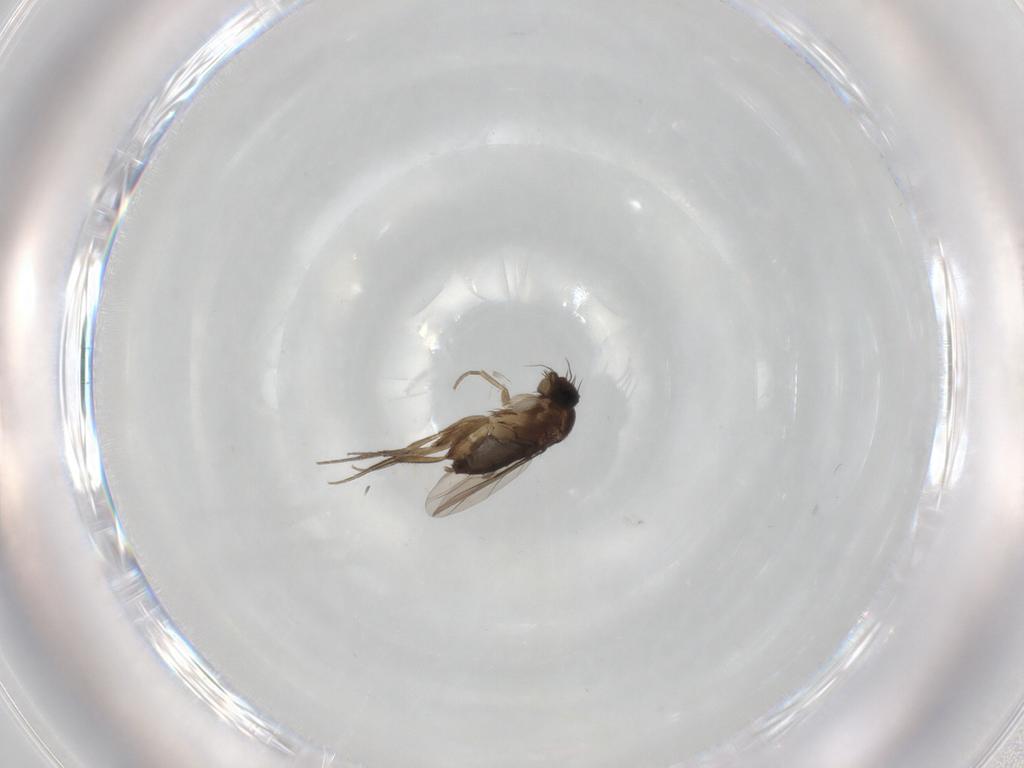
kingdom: Animalia
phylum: Arthropoda
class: Insecta
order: Diptera
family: Phoridae
